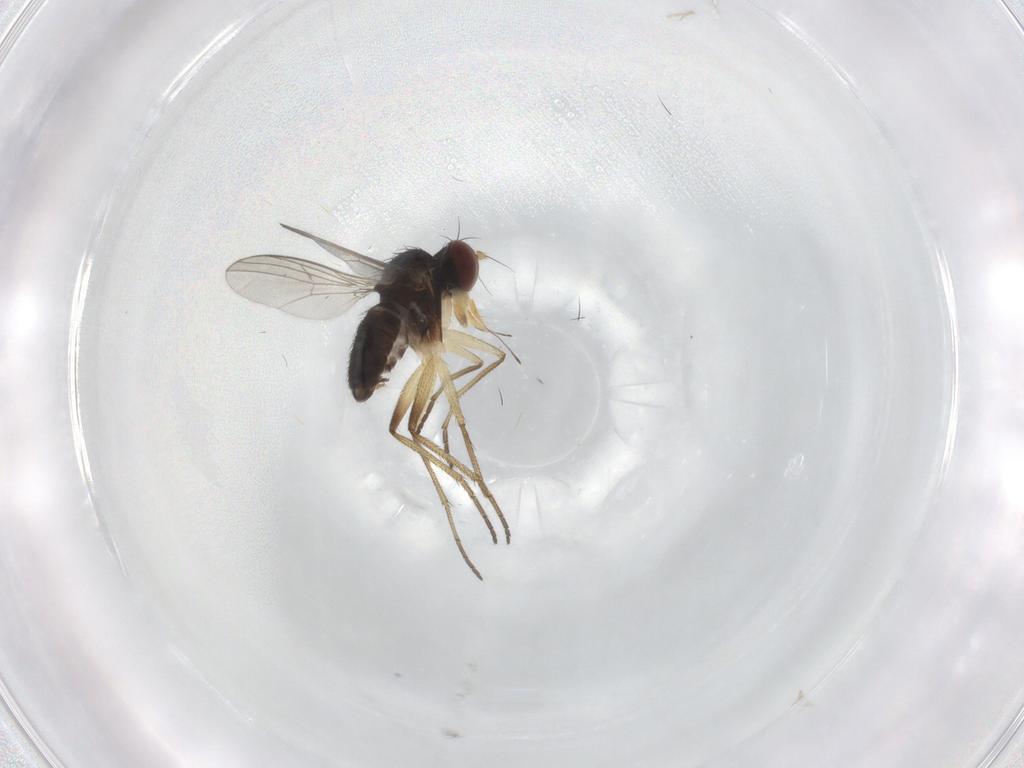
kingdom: Animalia
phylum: Arthropoda
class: Insecta
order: Diptera
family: Dolichopodidae
